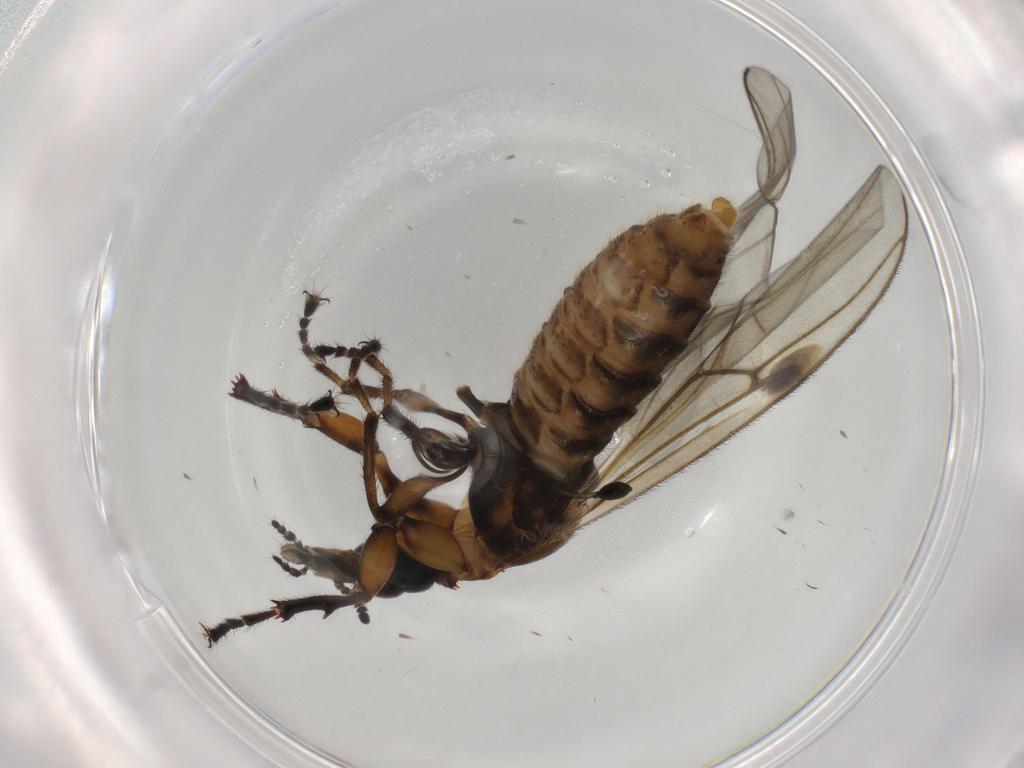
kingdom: Animalia
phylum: Arthropoda
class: Insecta
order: Diptera
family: Bibionidae
